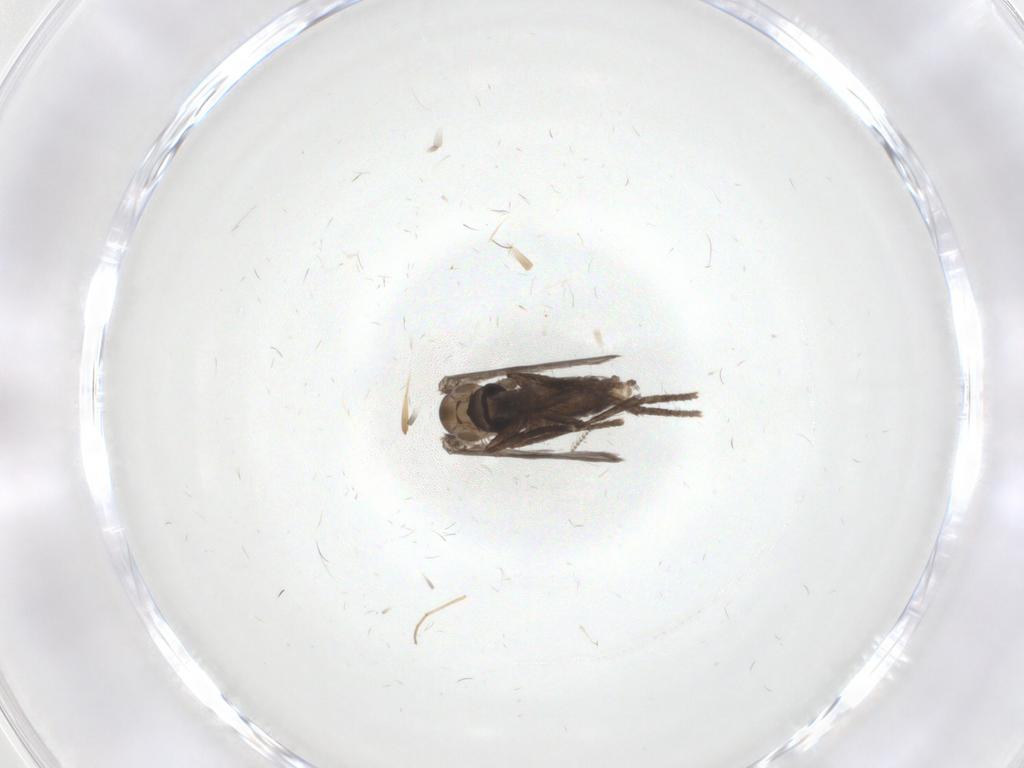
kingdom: Animalia
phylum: Arthropoda
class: Insecta
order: Diptera
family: Psychodidae
